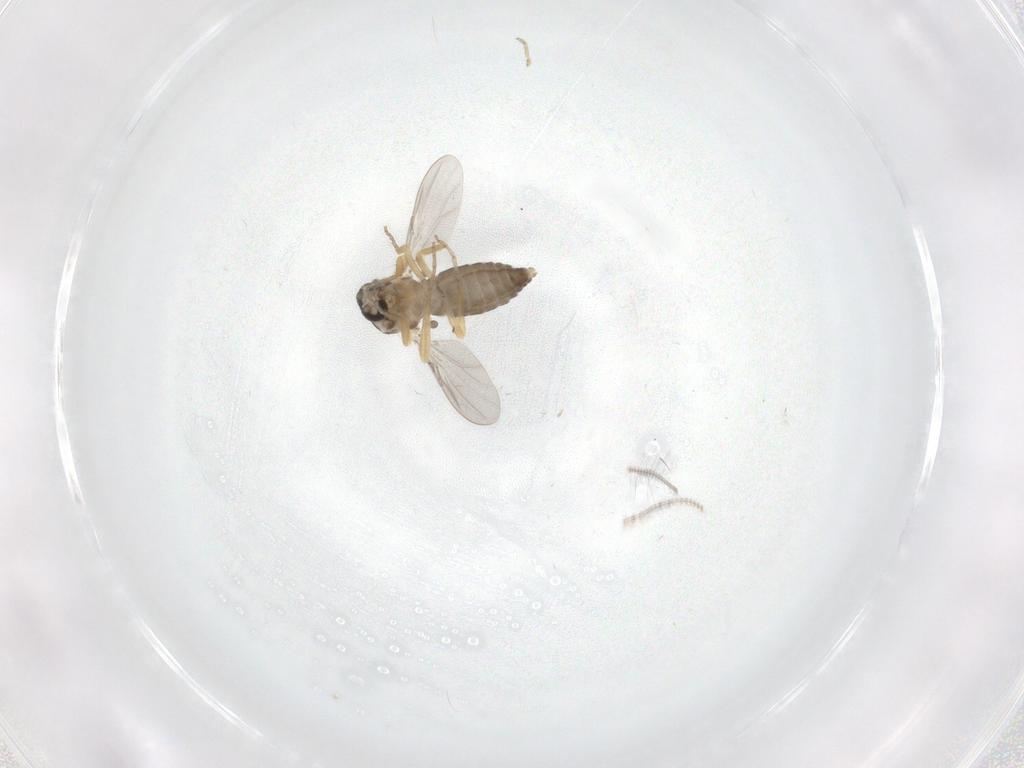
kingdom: Animalia
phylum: Arthropoda
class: Insecta
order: Diptera
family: Ceratopogonidae
